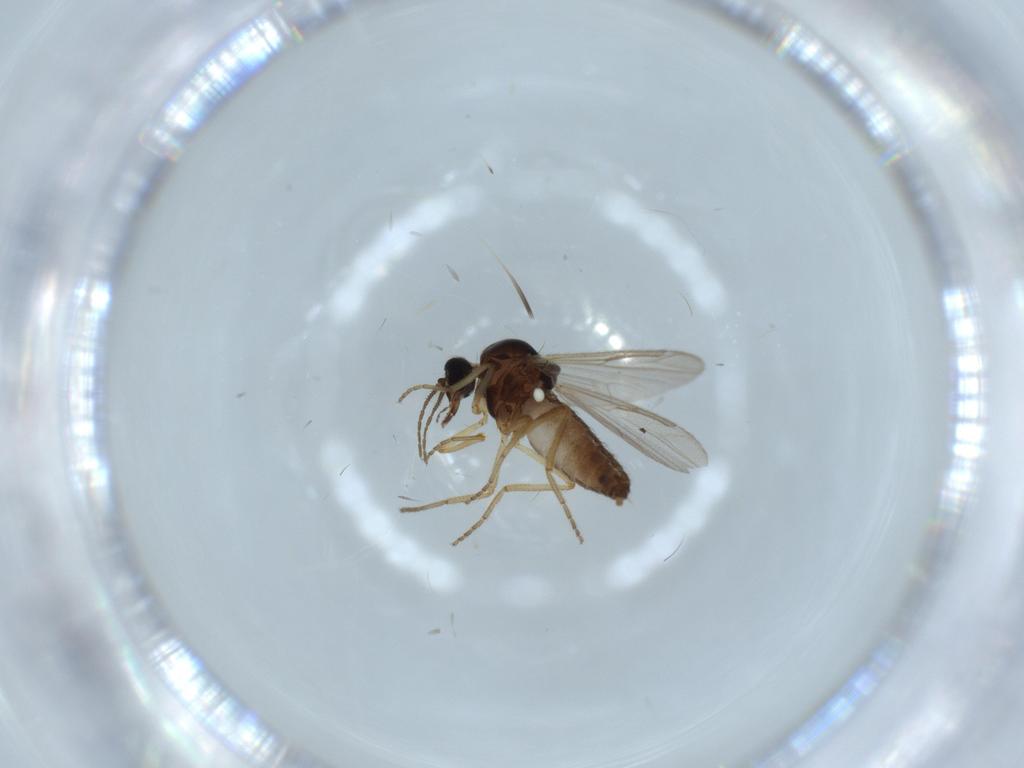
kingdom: Animalia
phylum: Arthropoda
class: Insecta
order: Diptera
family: Ceratopogonidae
